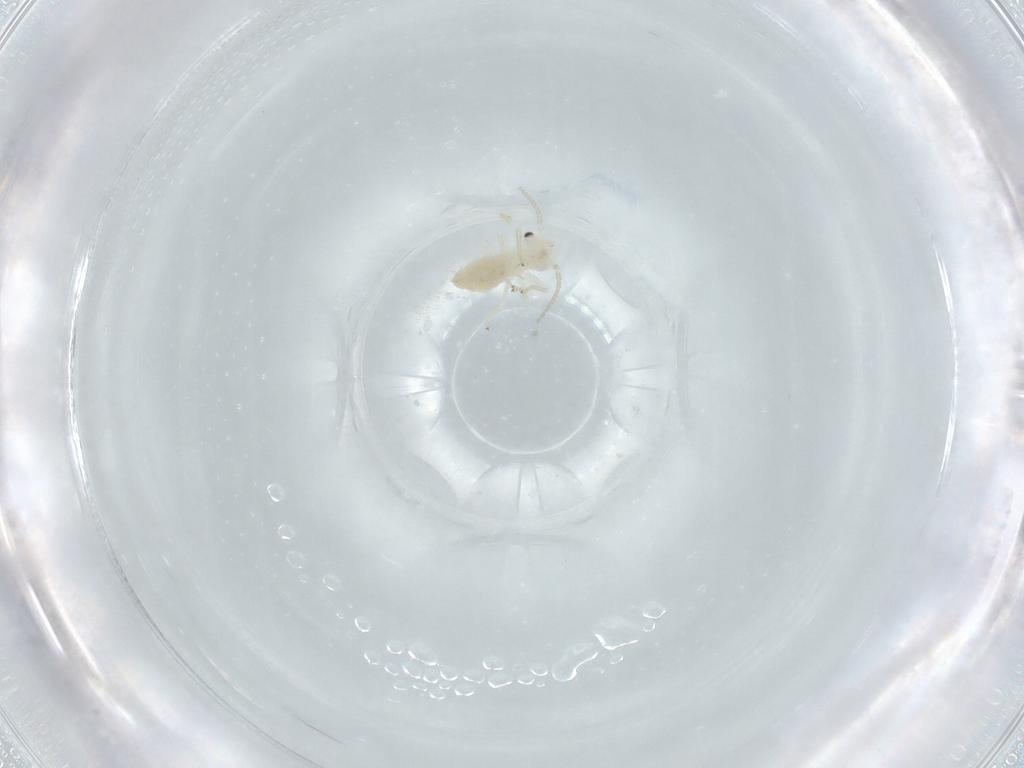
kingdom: Animalia
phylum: Arthropoda
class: Insecta
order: Psocodea
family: Caeciliusidae
